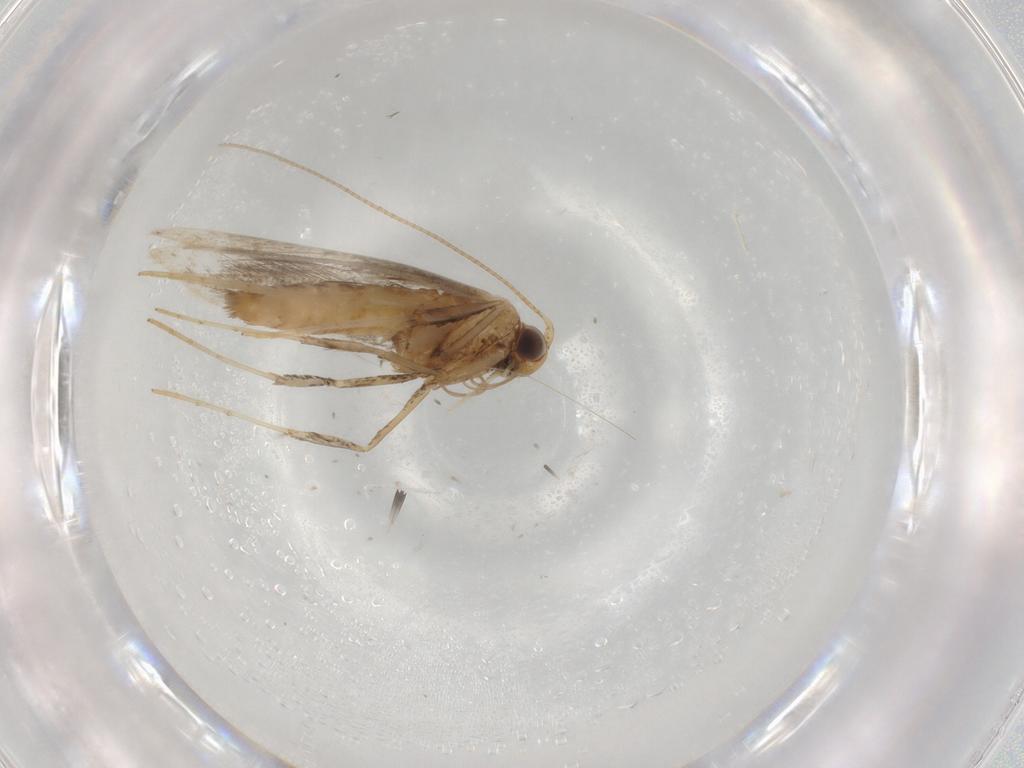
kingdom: Animalia
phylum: Arthropoda
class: Insecta
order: Lepidoptera
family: Gracillariidae
